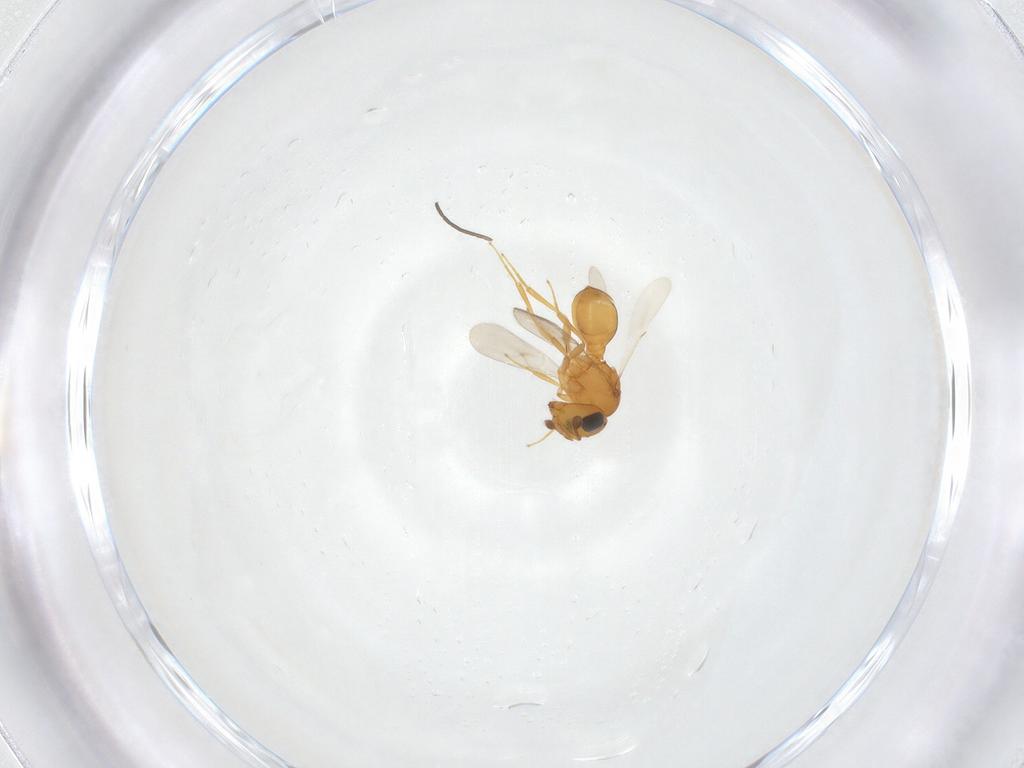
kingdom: Animalia
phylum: Arthropoda
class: Insecta
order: Hymenoptera
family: Scelionidae
